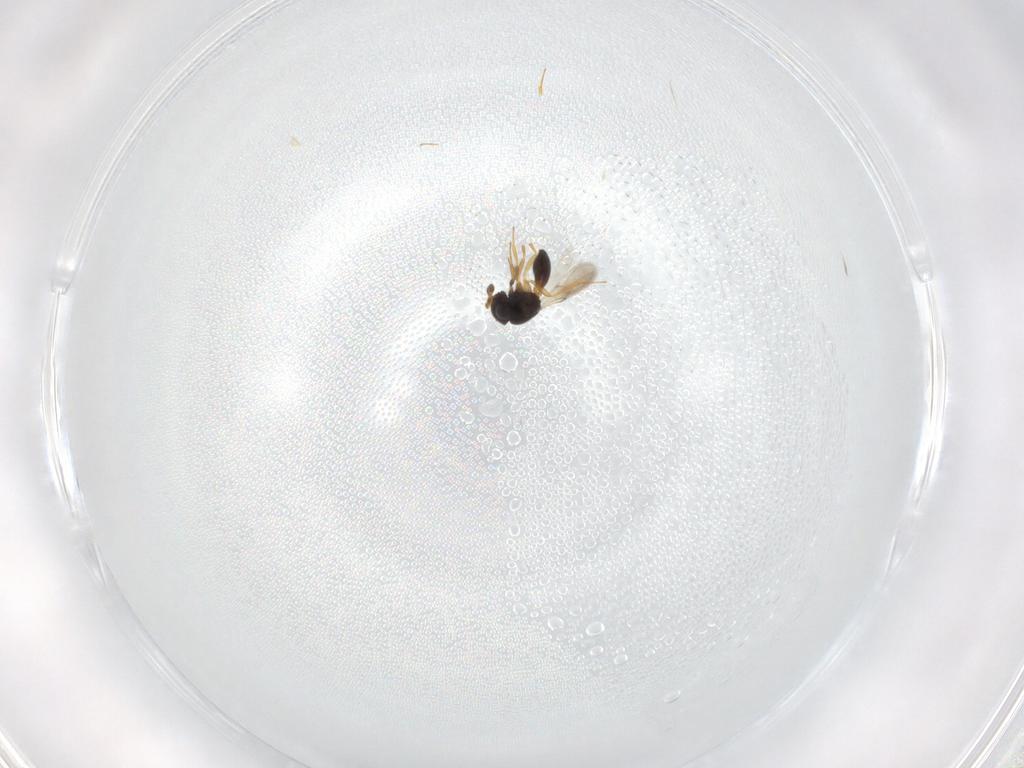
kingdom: Animalia
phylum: Arthropoda
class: Insecta
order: Hymenoptera
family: Scelionidae
